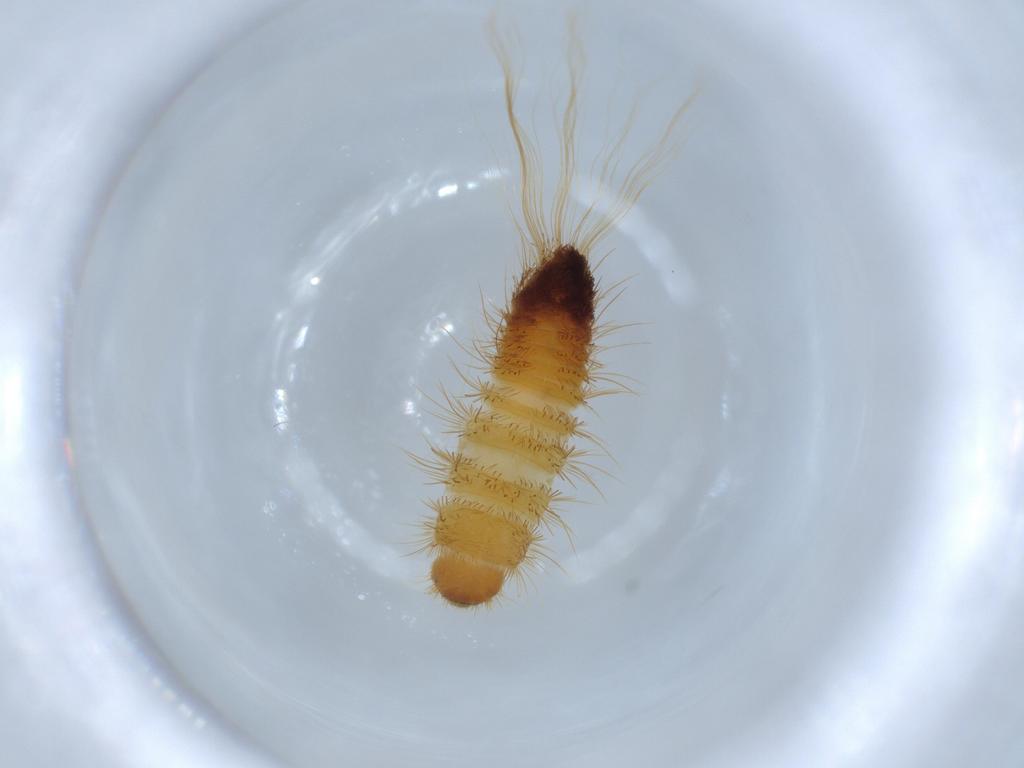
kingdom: Animalia
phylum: Arthropoda
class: Insecta
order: Coleoptera
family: Dermestidae
